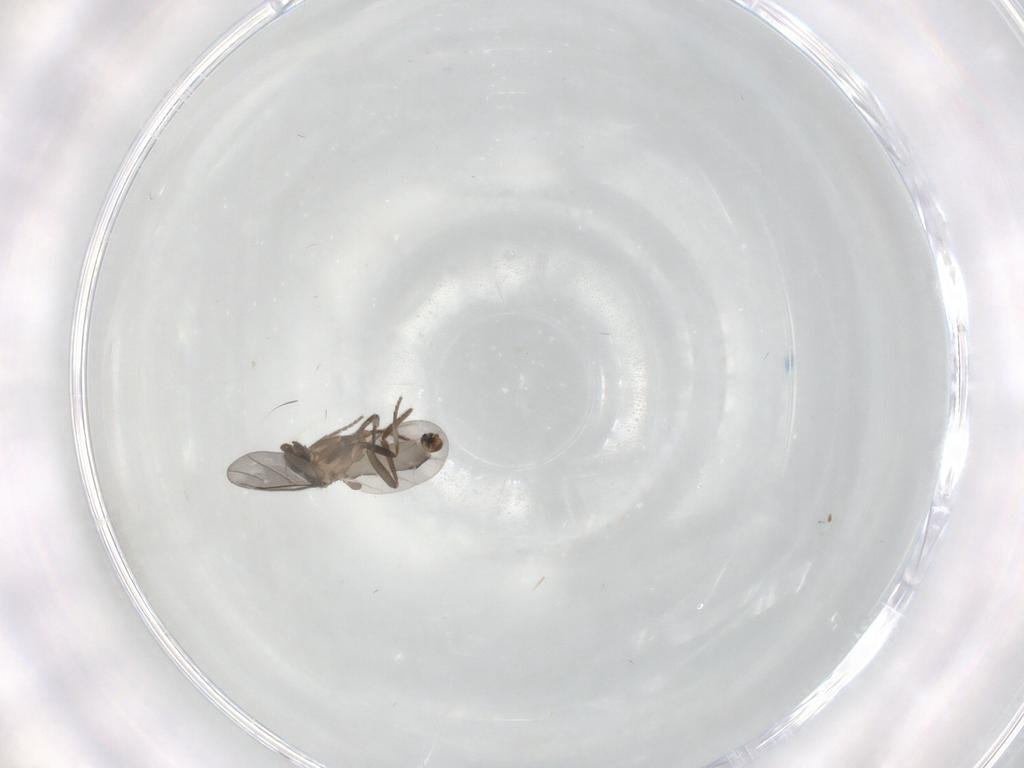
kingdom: Animalia
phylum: Arthropoda
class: Insecta
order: Diptera
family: Phoridae
